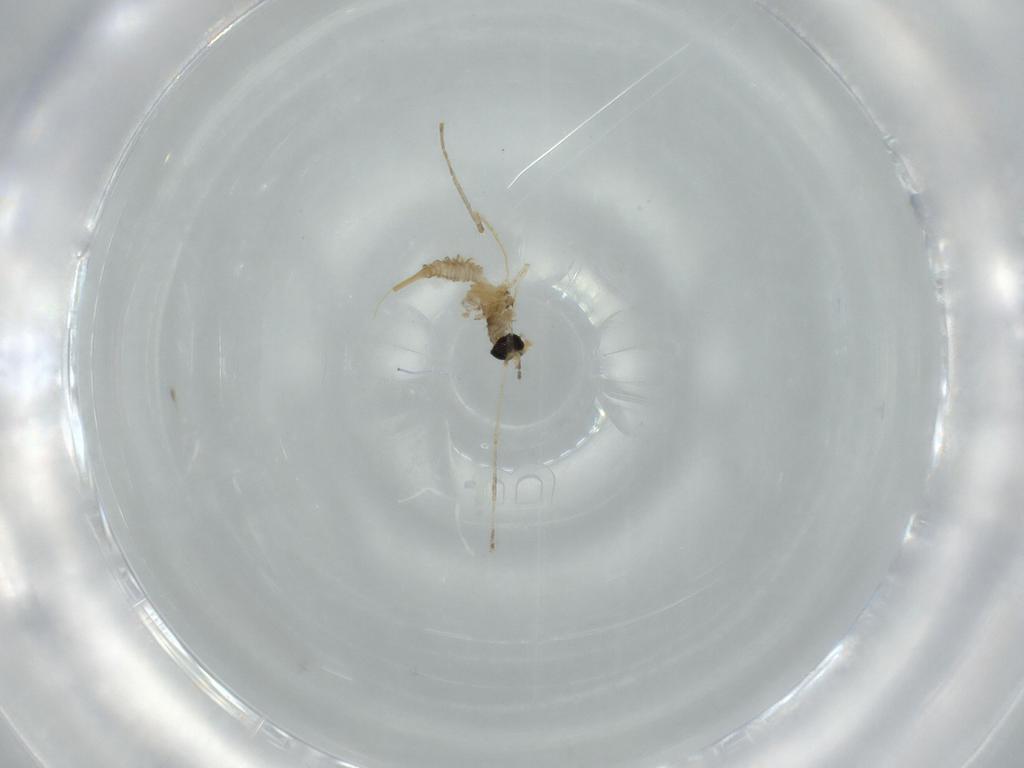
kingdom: Animalia
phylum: Arthropoda
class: Insecta
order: Diptera
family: Cecidomyiidae
